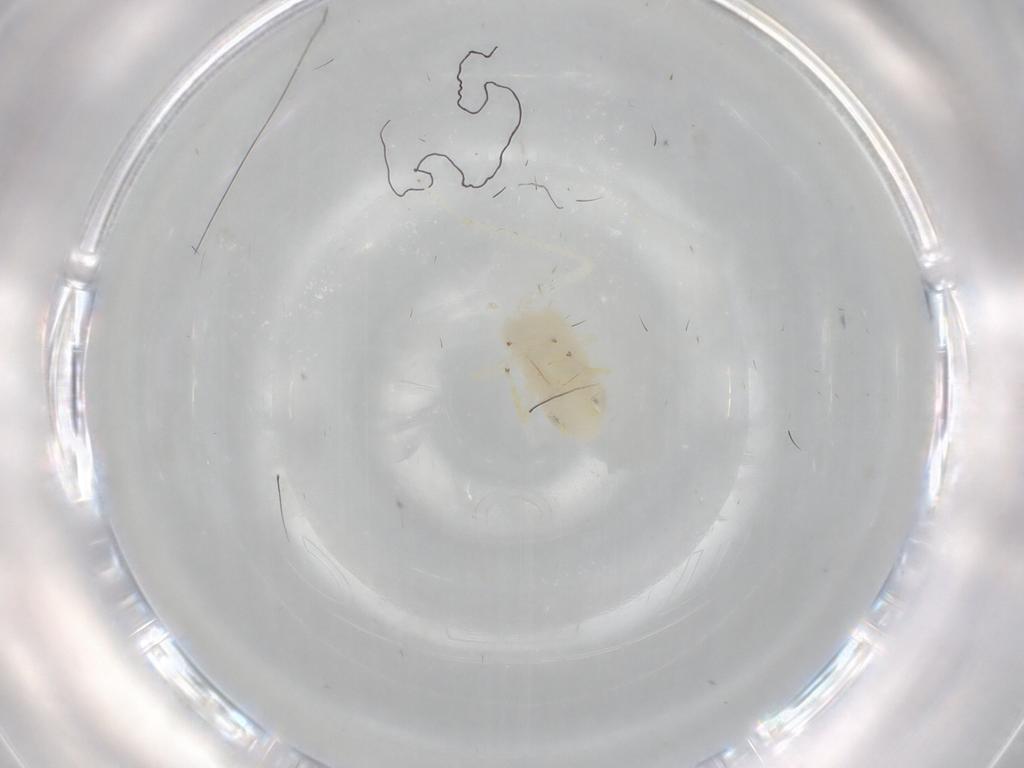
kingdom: Animalia
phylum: Arthropoda
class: Insecta
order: Hemiptera
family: Cicadellidae
